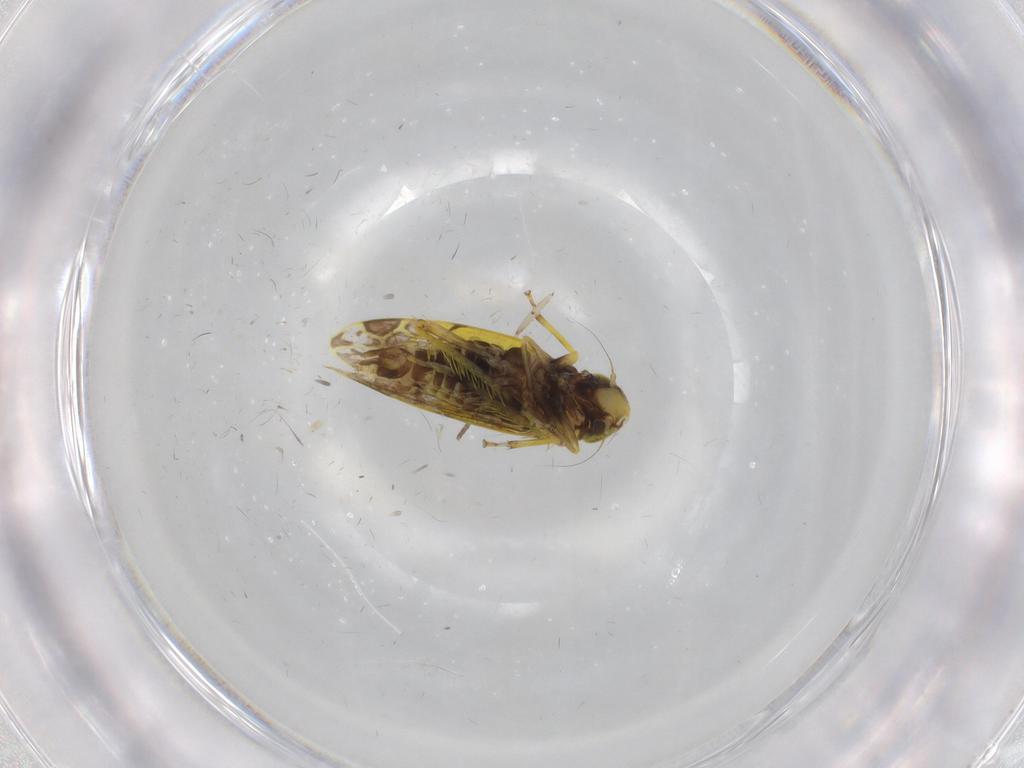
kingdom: Animalia
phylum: Arthropoda
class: Insecta
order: Hemiptera
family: Cicadellidae
